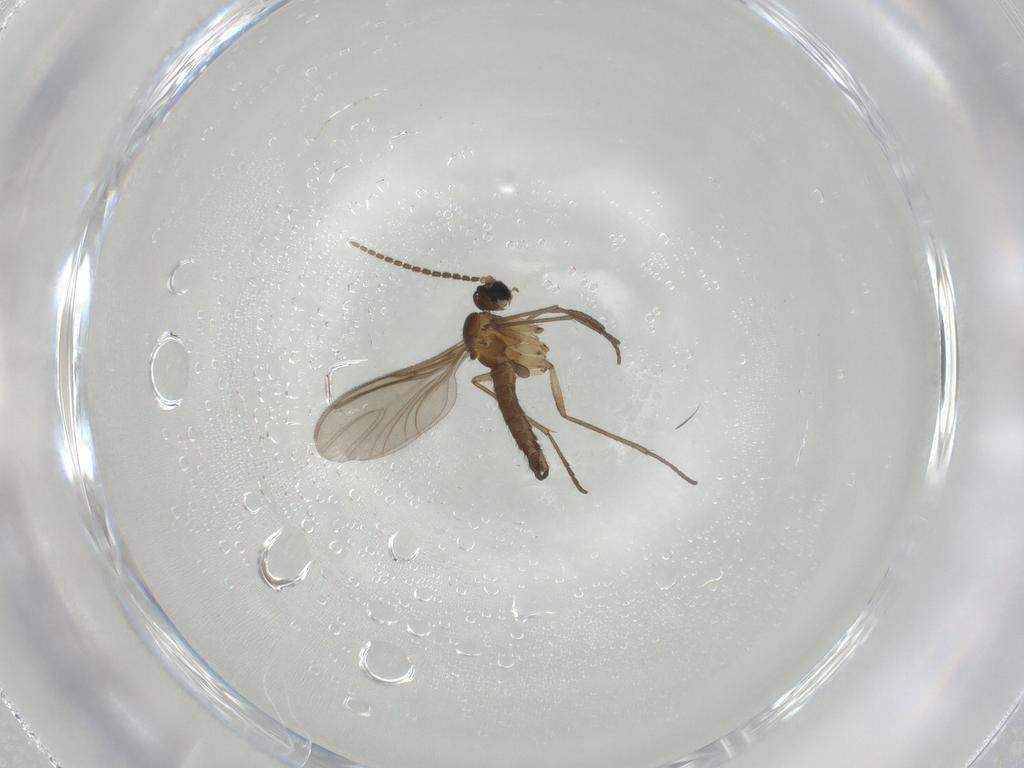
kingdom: Animalia
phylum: Arthropoda
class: Insecta
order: Diptera
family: Sciaridae
